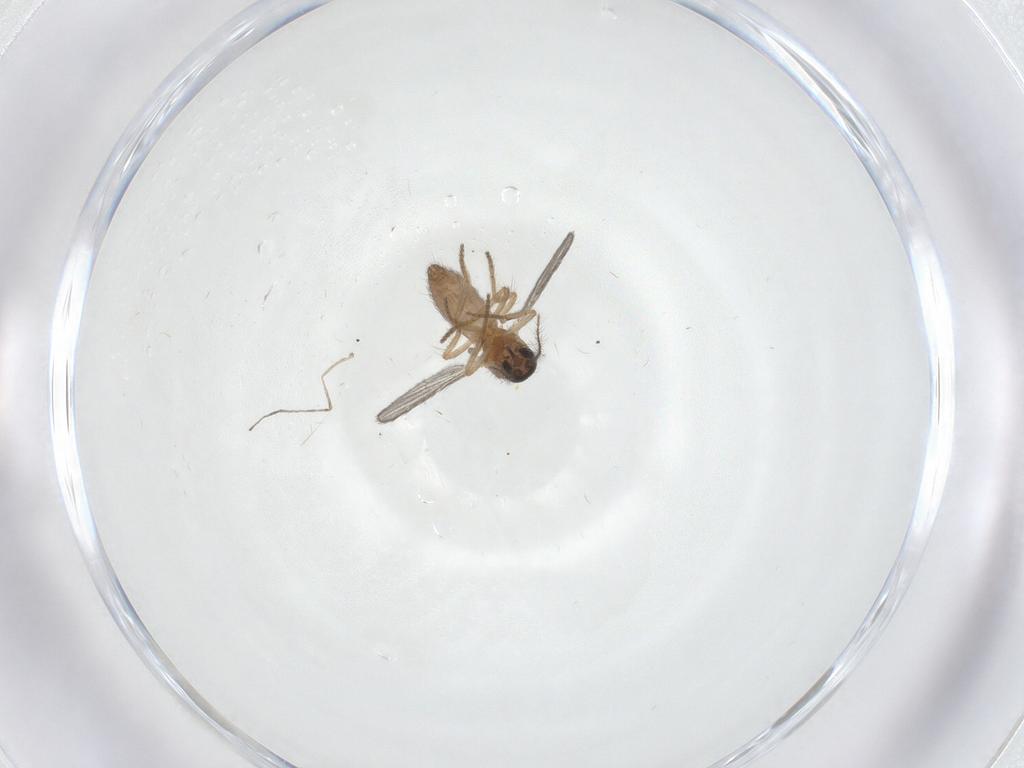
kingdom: Animalia
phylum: Arthropoda
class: Insecta
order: Diptera
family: Ceratopogonidae
